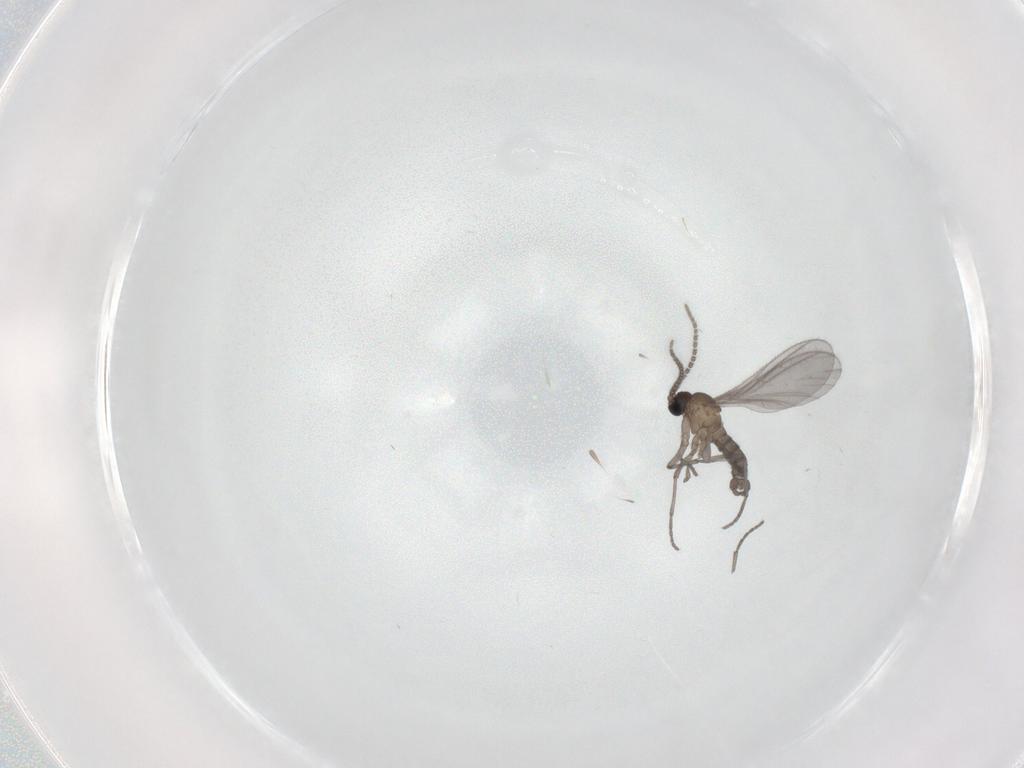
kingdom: Animalia
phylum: Arthropoda
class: Insecta
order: Diptera
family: Sciaridae
